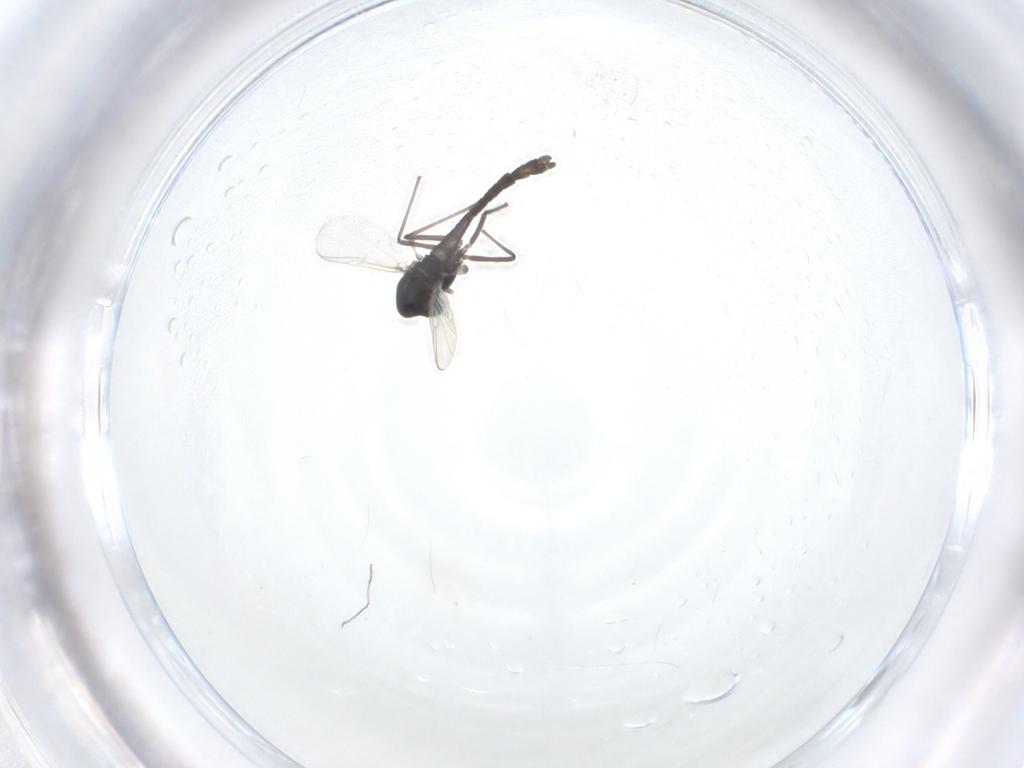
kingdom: Animalia
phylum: Arthropoda
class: Insecta
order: Diptera
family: Chironomidae
